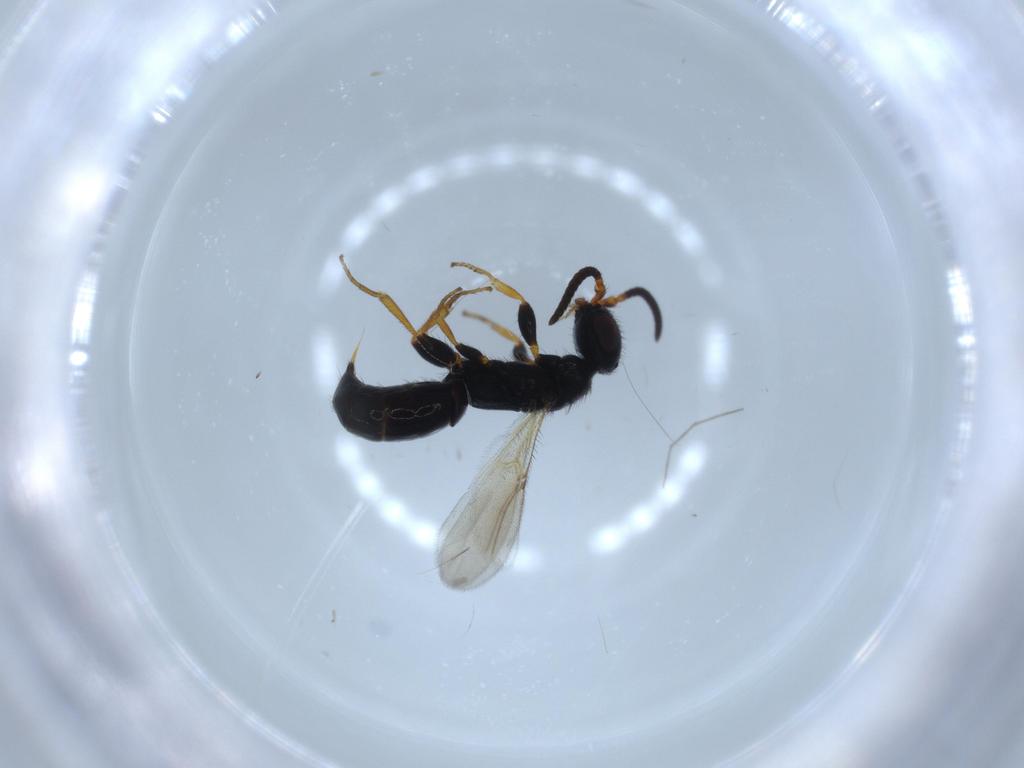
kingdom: Animalia
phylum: Arthropoda
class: Insecta
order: Hymenoptera
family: Bethylidae
